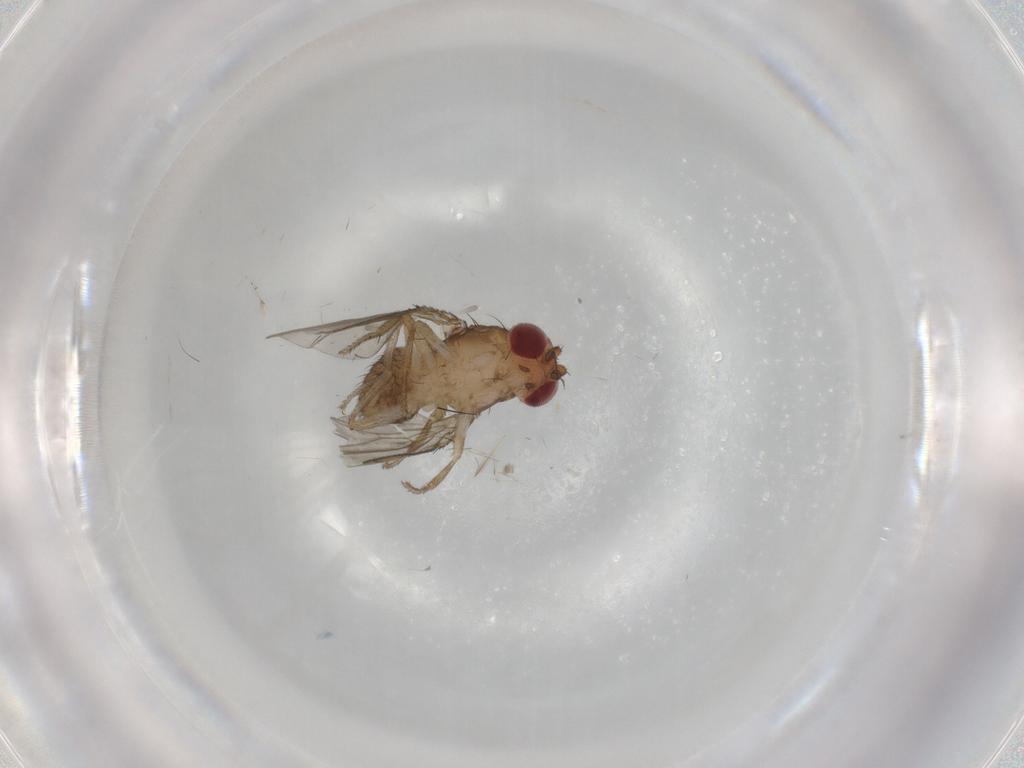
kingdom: Animalia
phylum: Arthropoda
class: Insecta
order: Diptera
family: Drosophilidae
